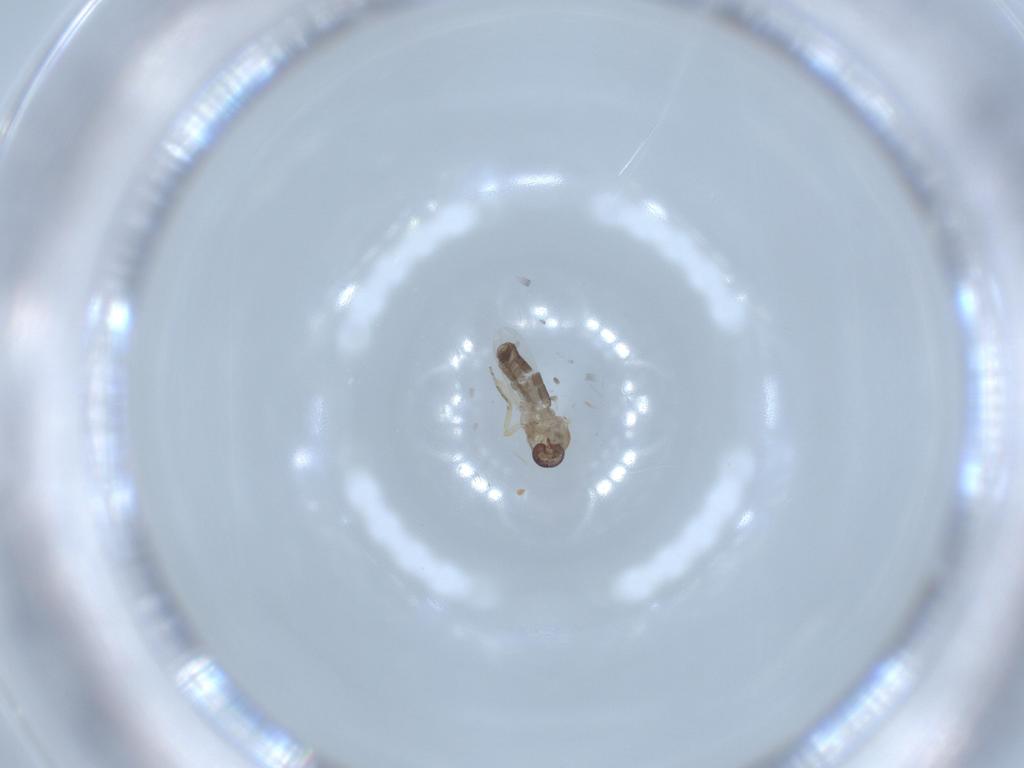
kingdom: Animalia
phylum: Arthropoda
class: Insecta
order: Diptera
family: Ceratopogonidae
